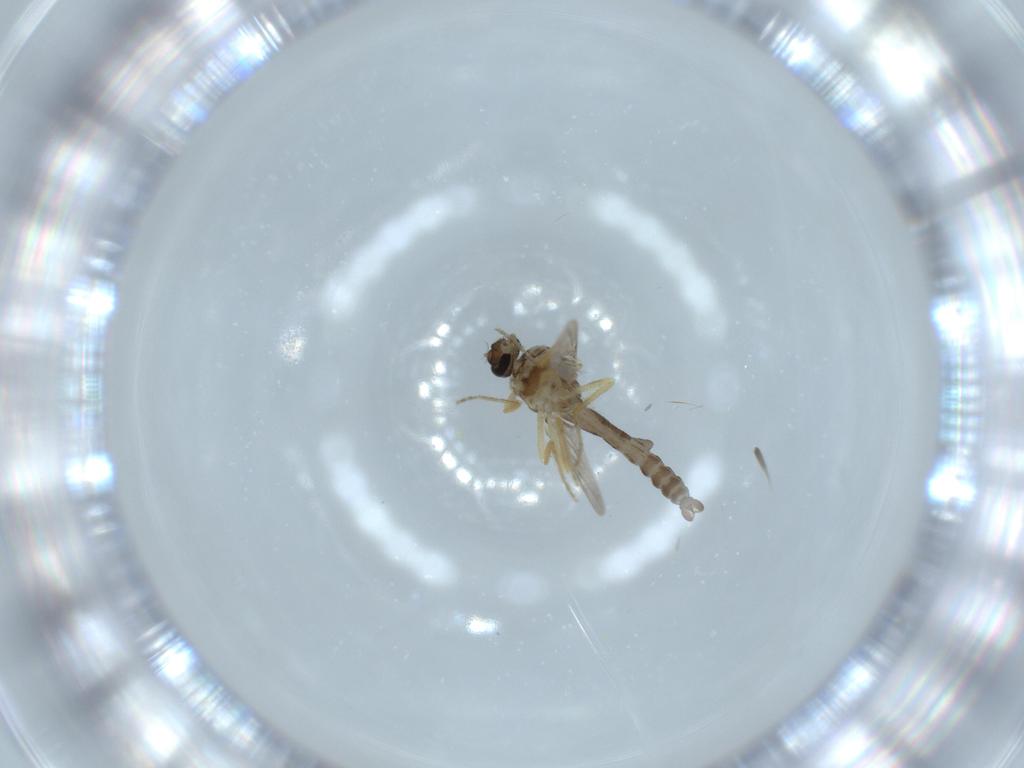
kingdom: Animalia
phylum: Arthropoda
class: Insecta
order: Diptera
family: Ceratopogonidae
